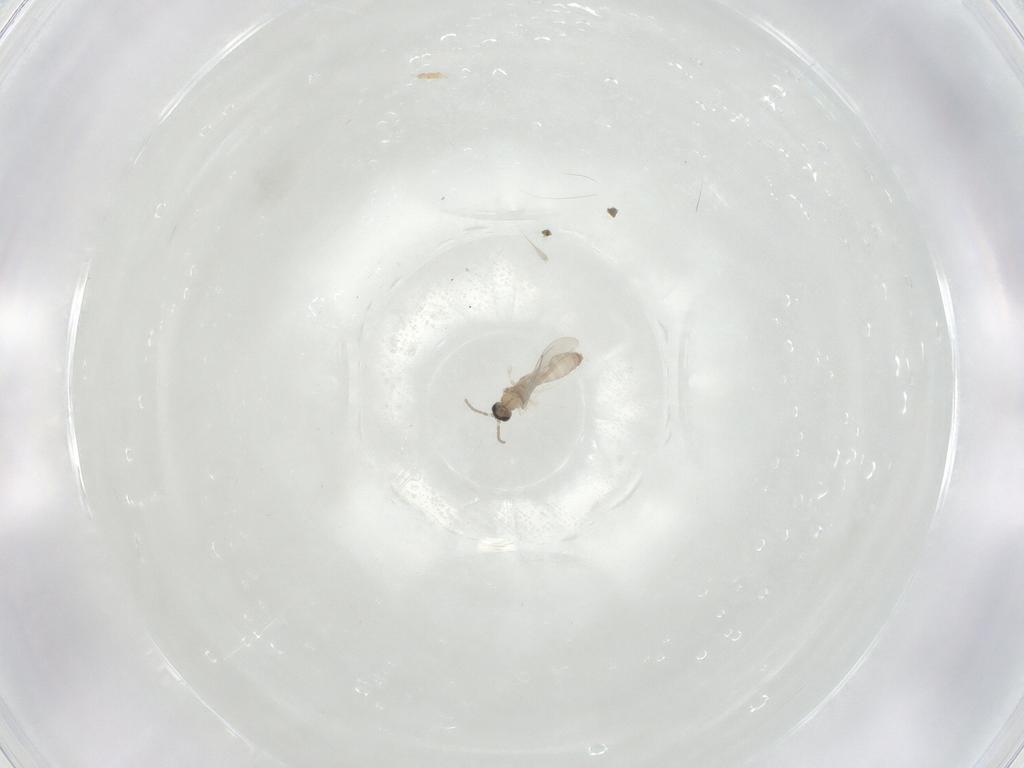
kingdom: Animalia
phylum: Arthropoda
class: Insecta
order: Diptera
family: Cecidomyiidae
